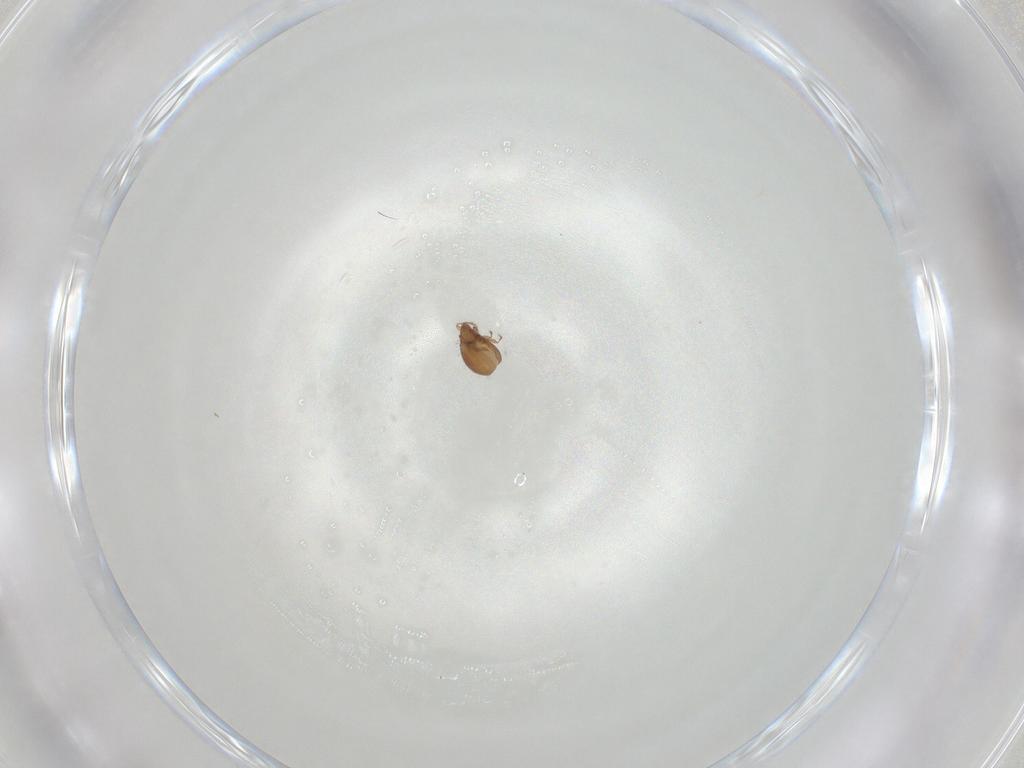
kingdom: Animalia
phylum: Arthropoda
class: Arachnida
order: Sarcoptiformes
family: Oribatulidae
